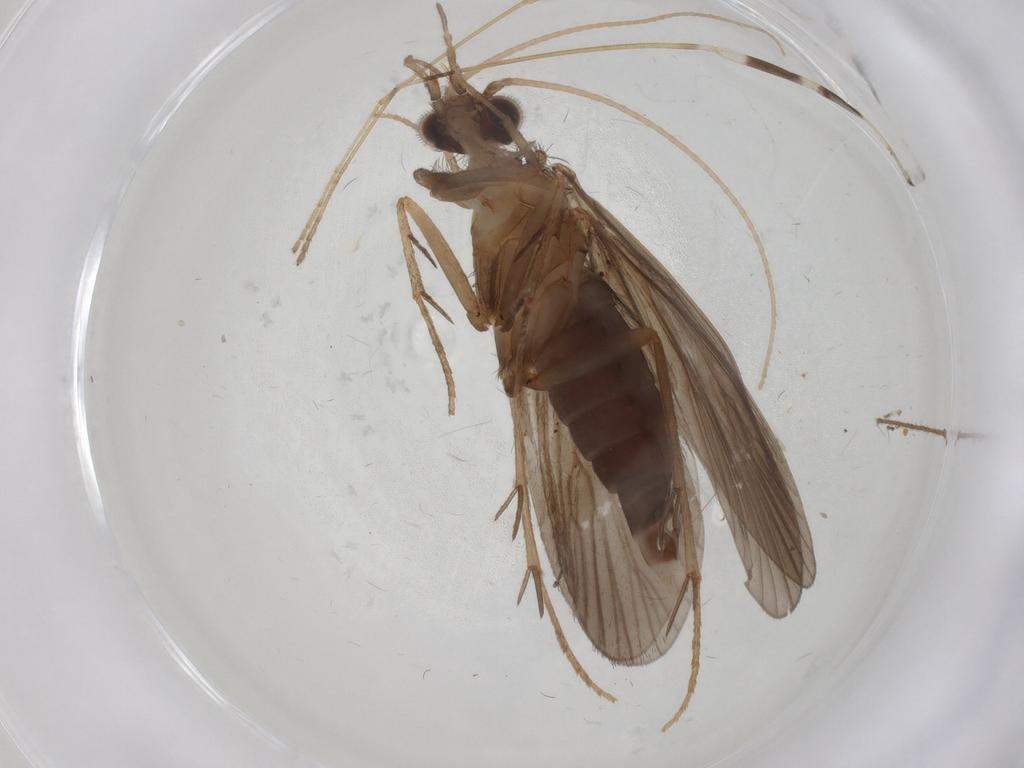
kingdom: Animalia
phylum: Arthropoda
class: Insecta
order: Trichoptera
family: Philopotamidae
